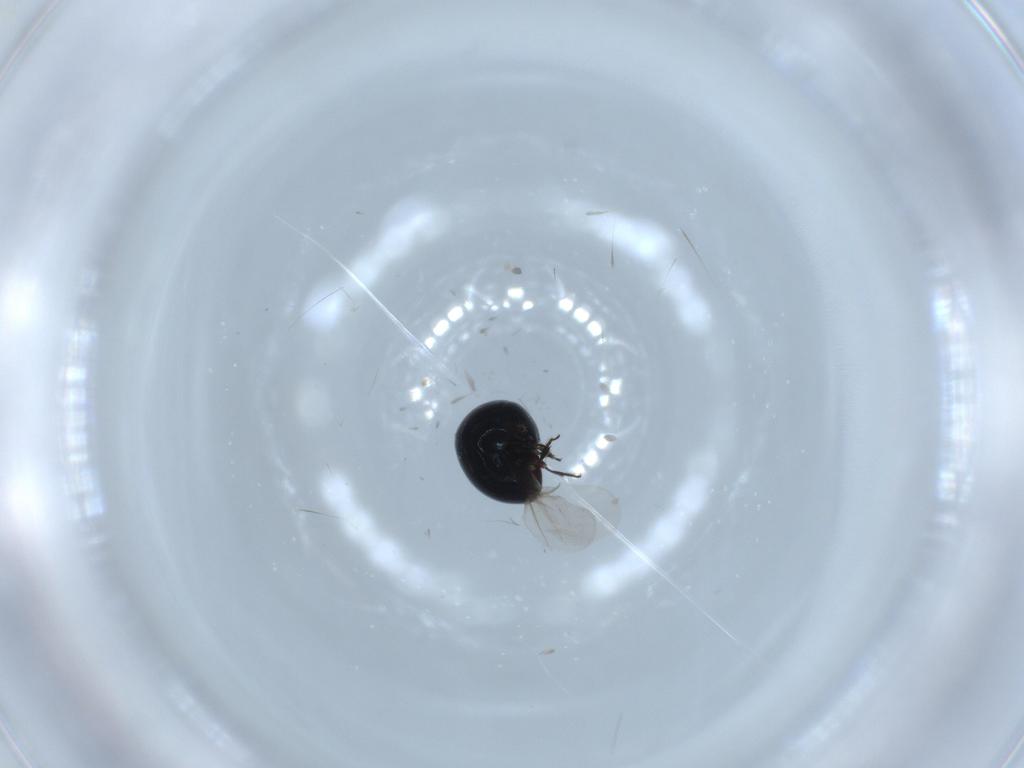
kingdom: Animalia
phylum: Arthropoda
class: Insecta
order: Coleoptera
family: Cybocephalidae
